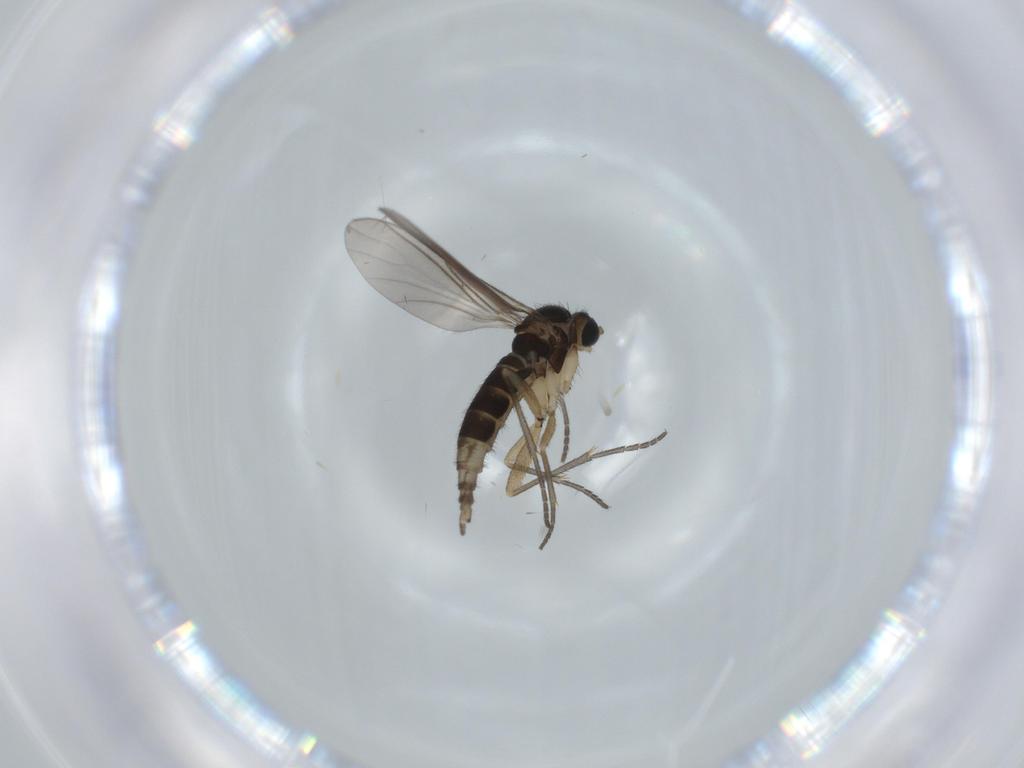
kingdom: Animalia
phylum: Arthropoda
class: Insecta
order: Diptera
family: Sciaridae
